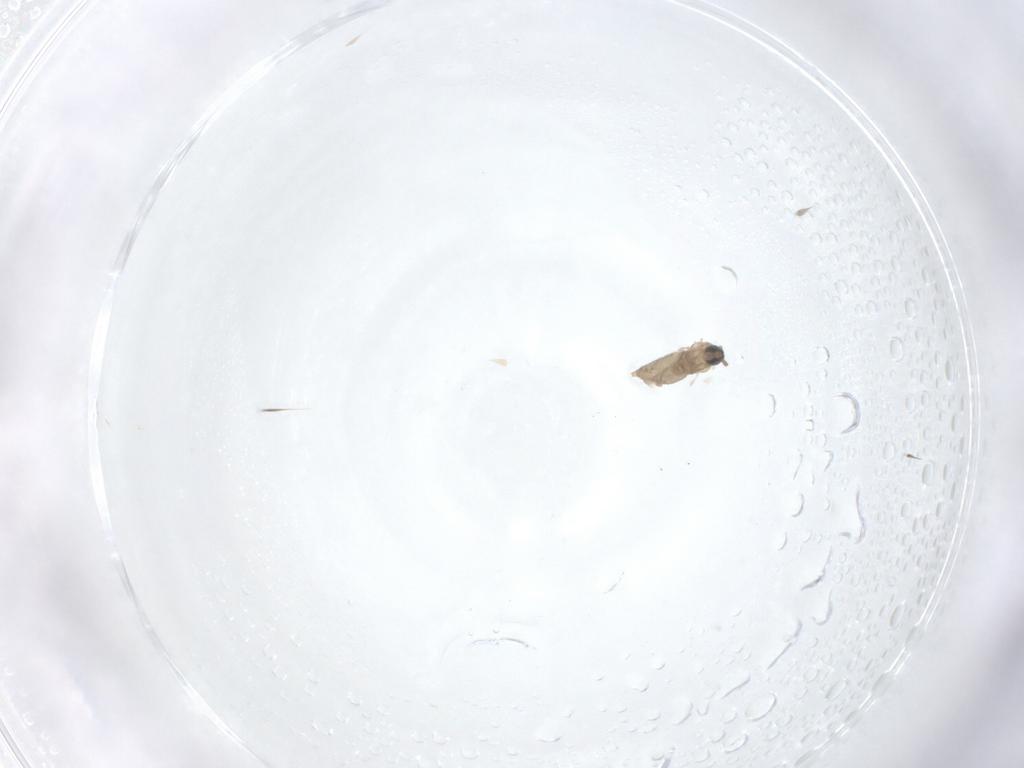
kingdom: Animalia
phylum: Arthropoda
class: Insecta
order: Diptera
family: Cecidomyiidae
